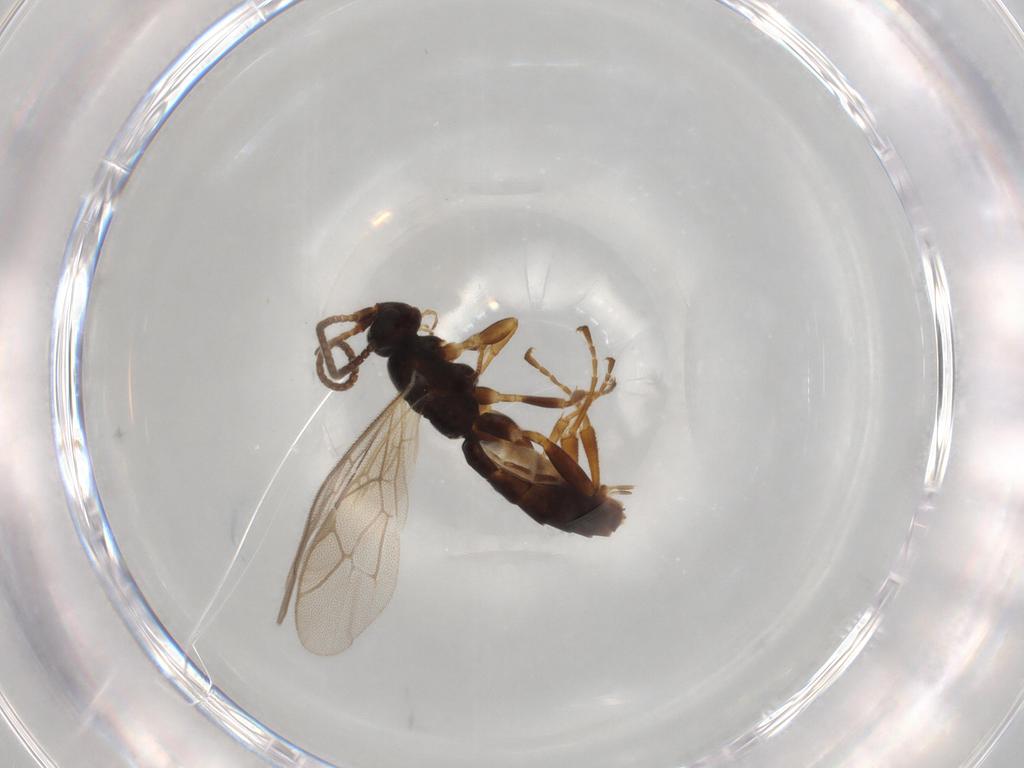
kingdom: Animalia
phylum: Arthropoda
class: Insecta
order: Hymenoptera
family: Ichneumonidae
